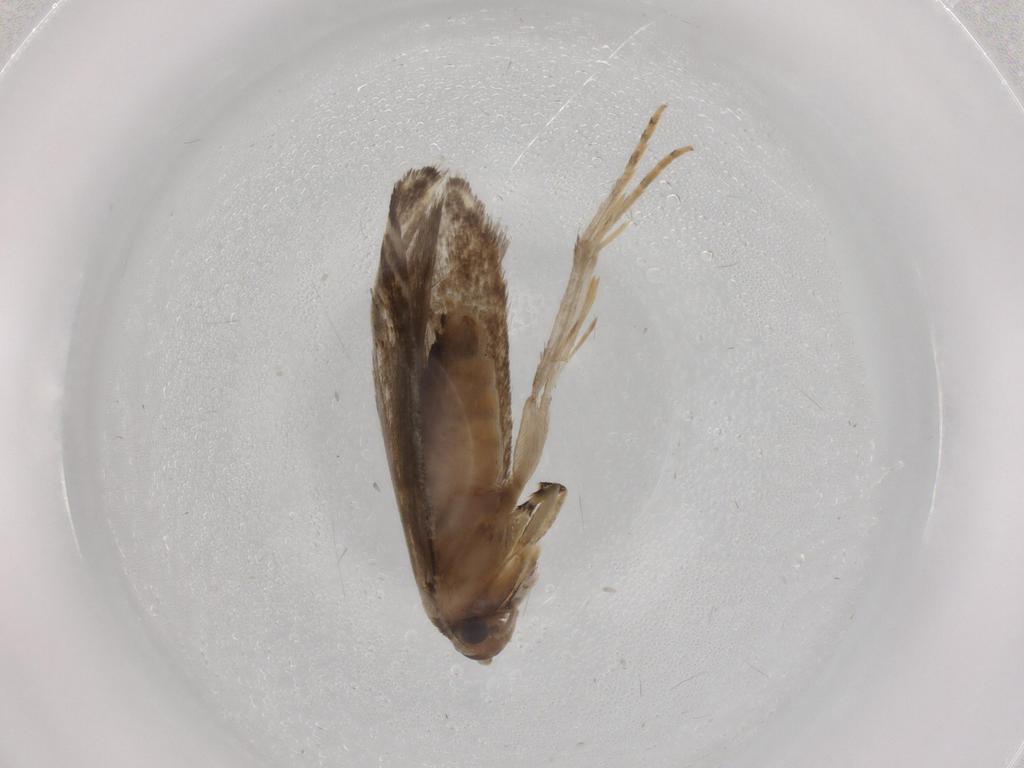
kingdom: Animalia
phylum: Arthropoda
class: Insecta
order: Lepidoptera
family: Tineidae
